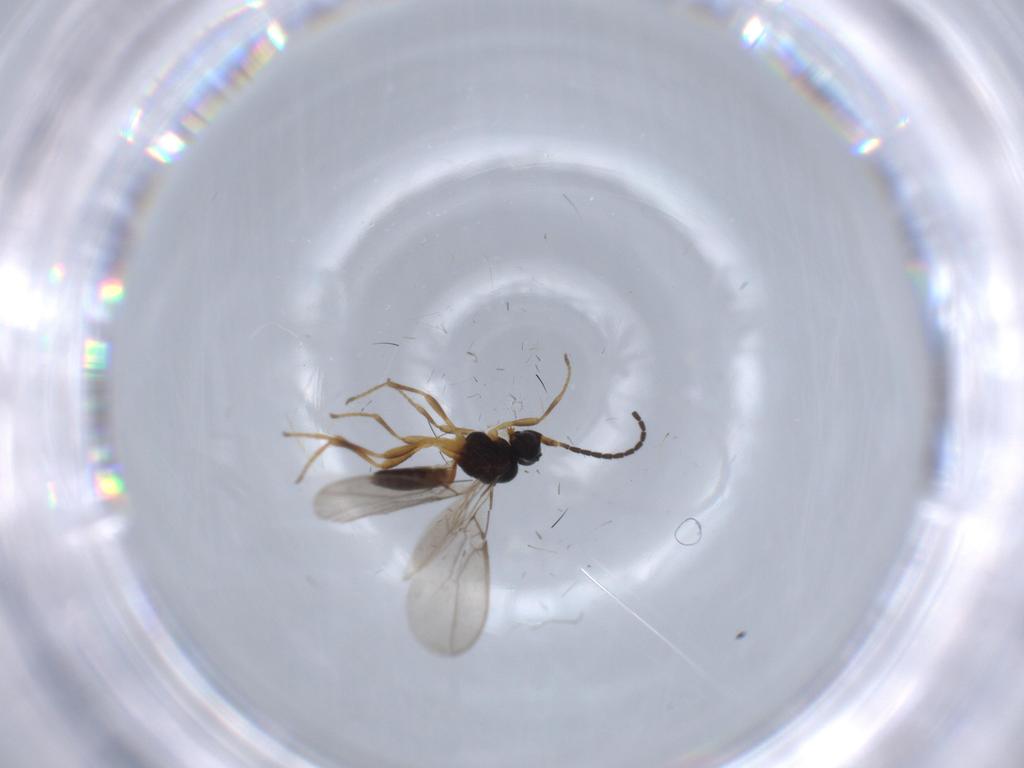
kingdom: Animalia
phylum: Arthropoda
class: Insecta
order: Hymenoptera
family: Braconidae
